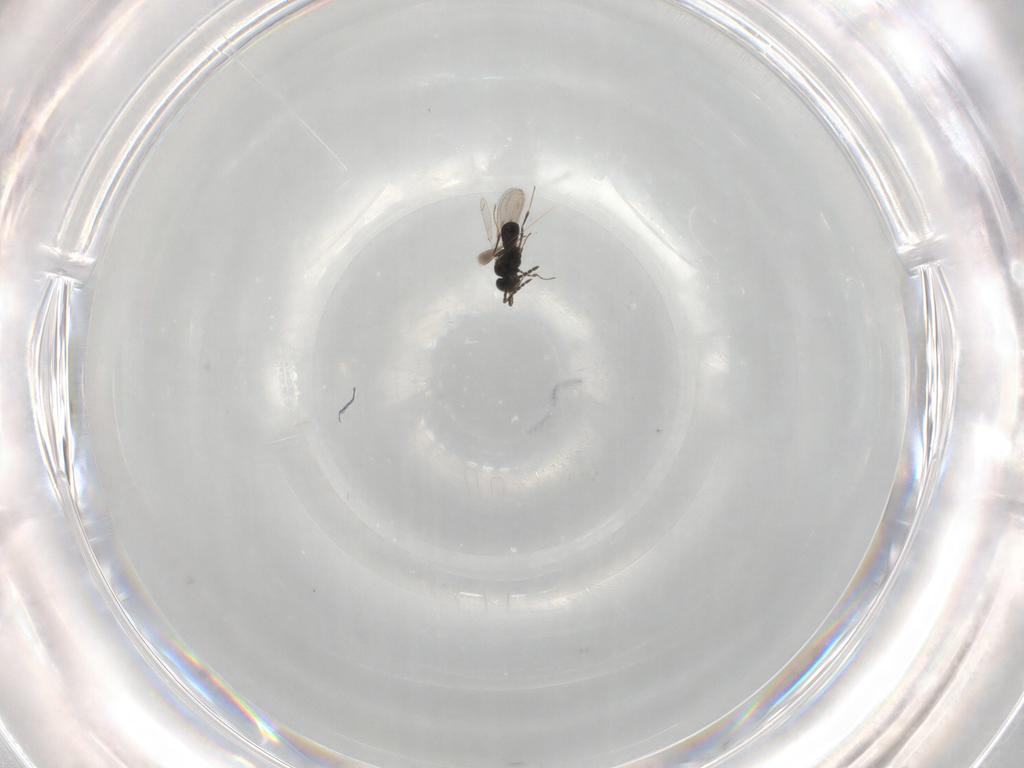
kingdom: Animalia
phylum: Arthropoda
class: Insecta
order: Hymenoptera
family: Scelionidae
